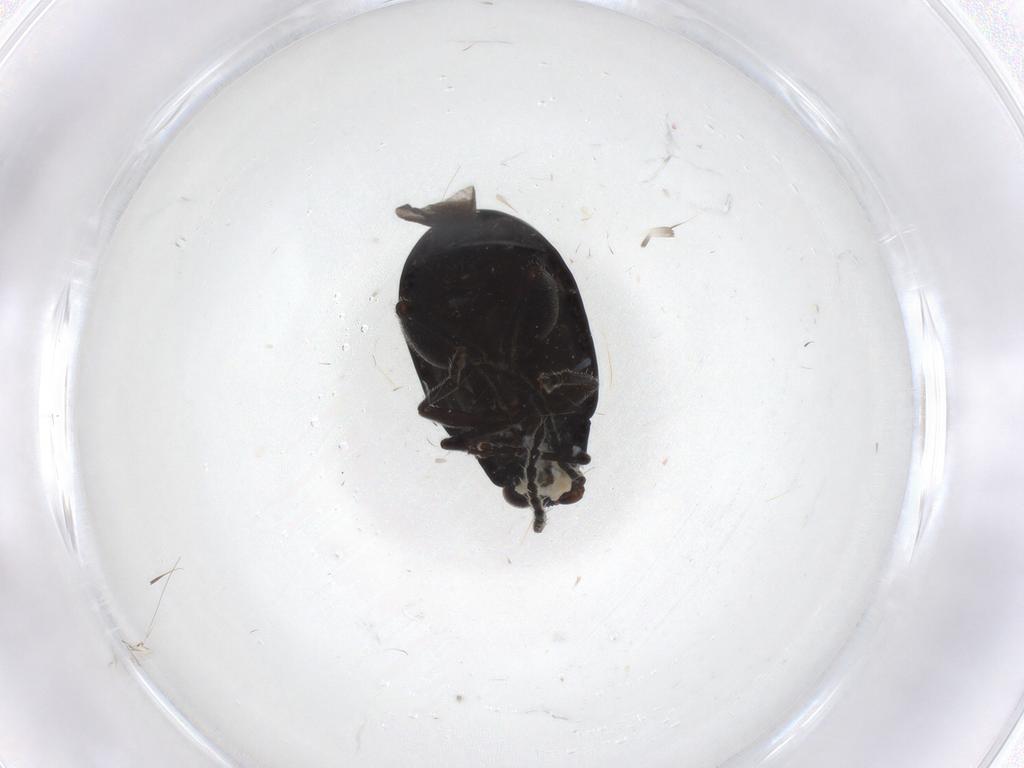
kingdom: Animalia
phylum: Arthropoda
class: Insecta
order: Coleoptera
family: Chrysomelidae
